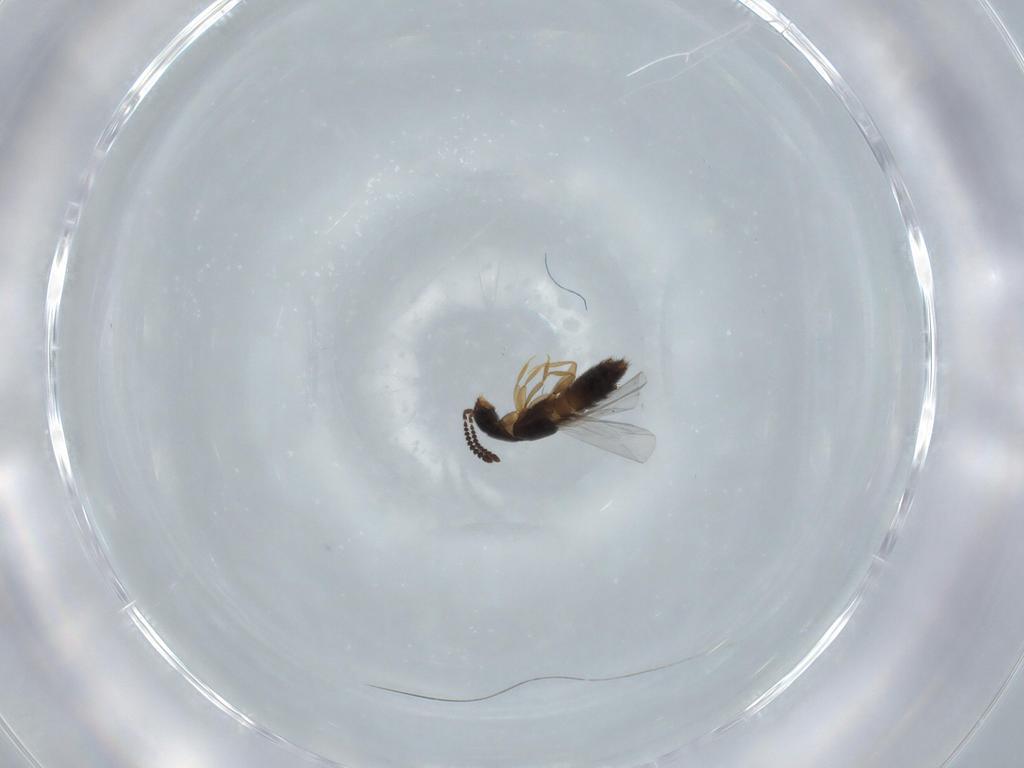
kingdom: Animalia
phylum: Arthropoda
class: Insecta
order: Coleoptera
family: Staphylinidae
